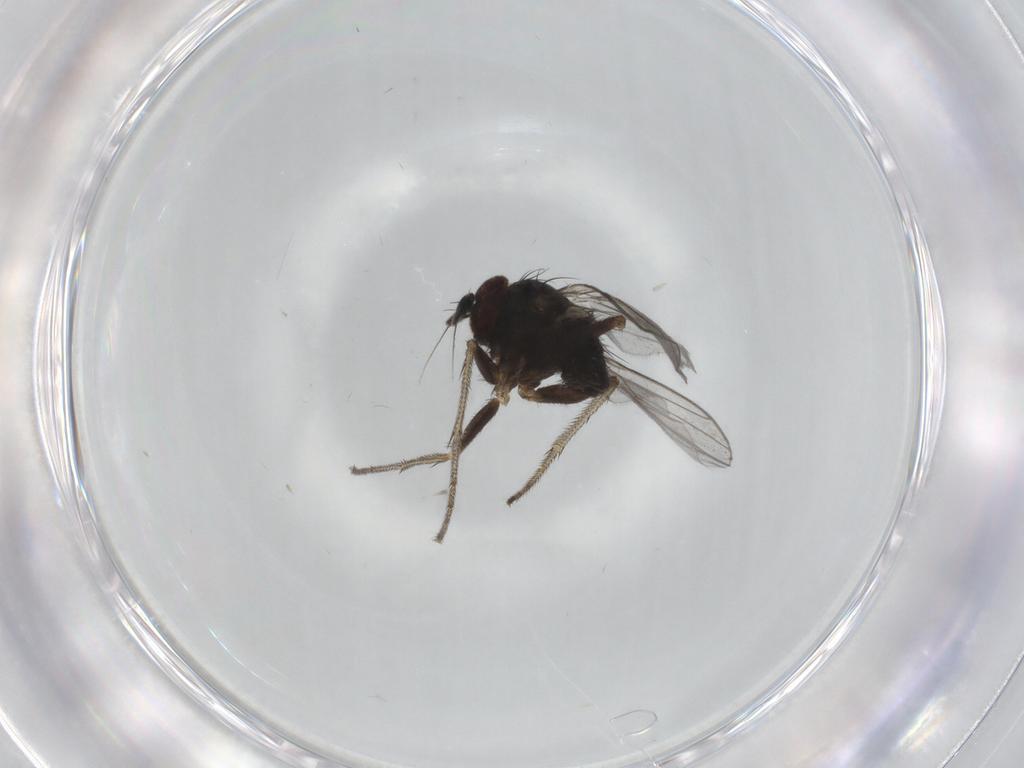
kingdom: Animalia
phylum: Arthropoda
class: Insecta
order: Diptera
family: Dolichopodidae
